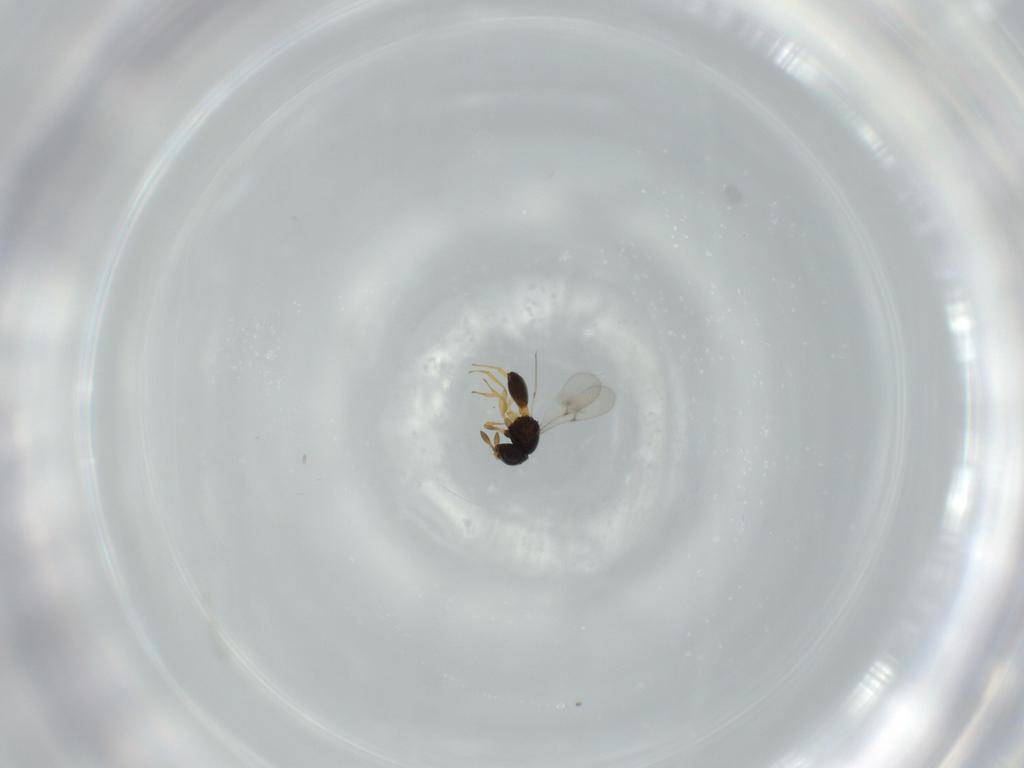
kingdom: Animalia
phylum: Arthropoda
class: Insecta
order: Hymenoptera
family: Scelionidae
